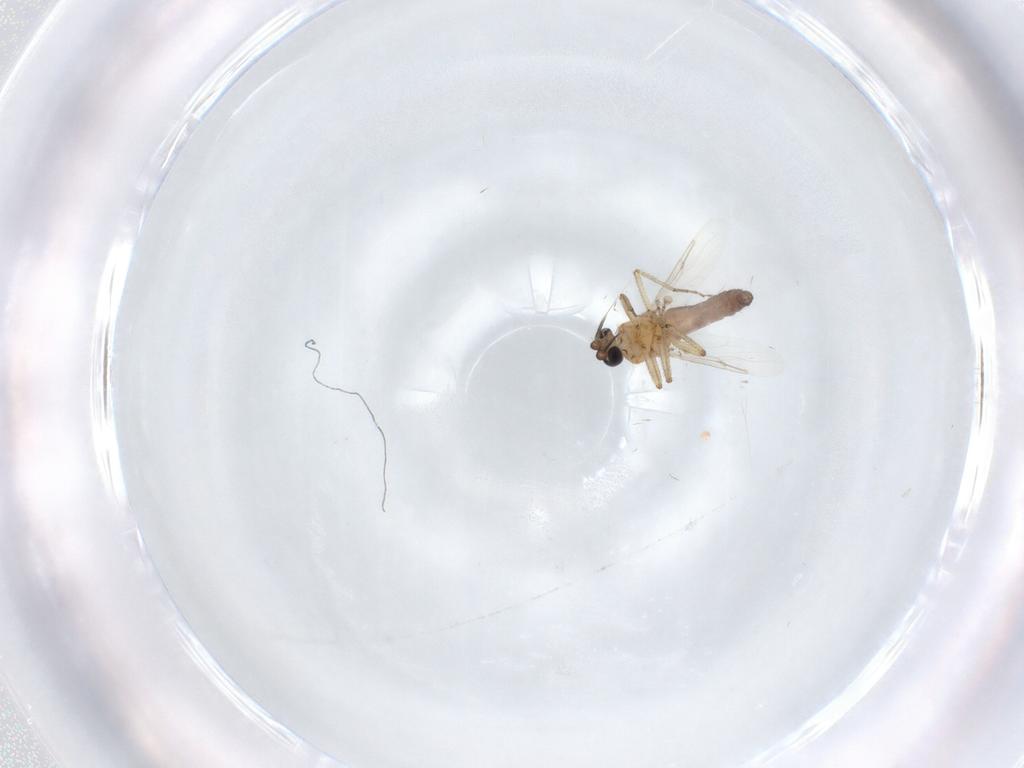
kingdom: Animalia
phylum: Arthropoda
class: Insecta
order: Diptera
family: Ceratopogonidae
